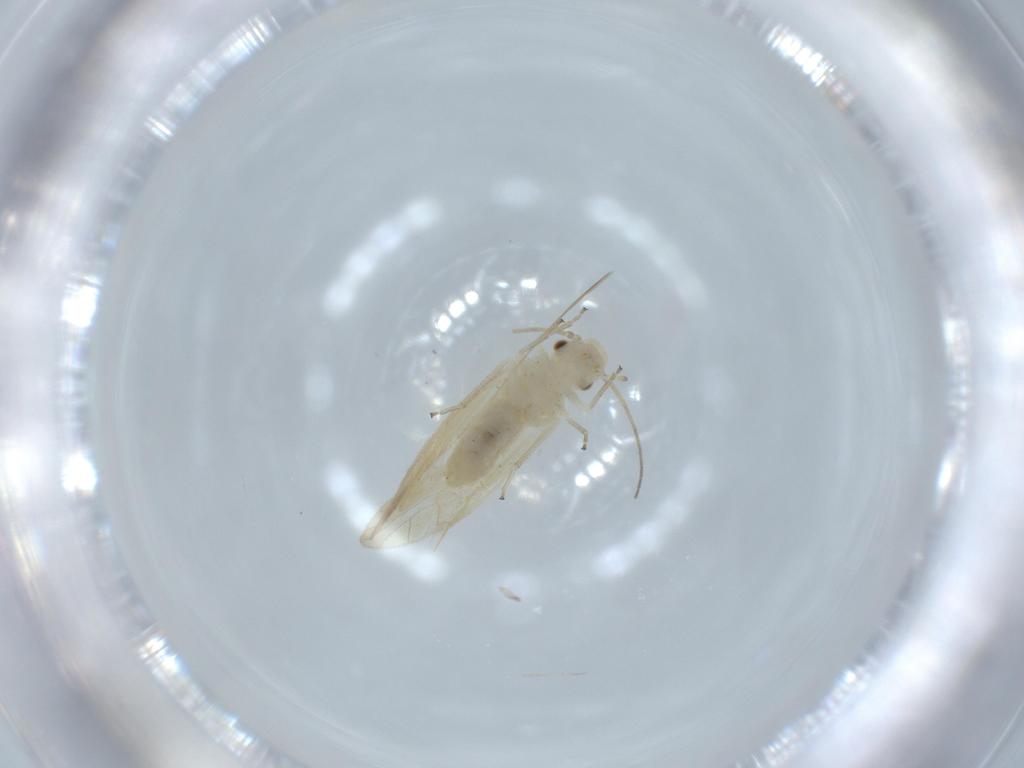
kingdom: Animalia
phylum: Arthropoda
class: Insecta
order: Psocodea
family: Caeciliusidae
